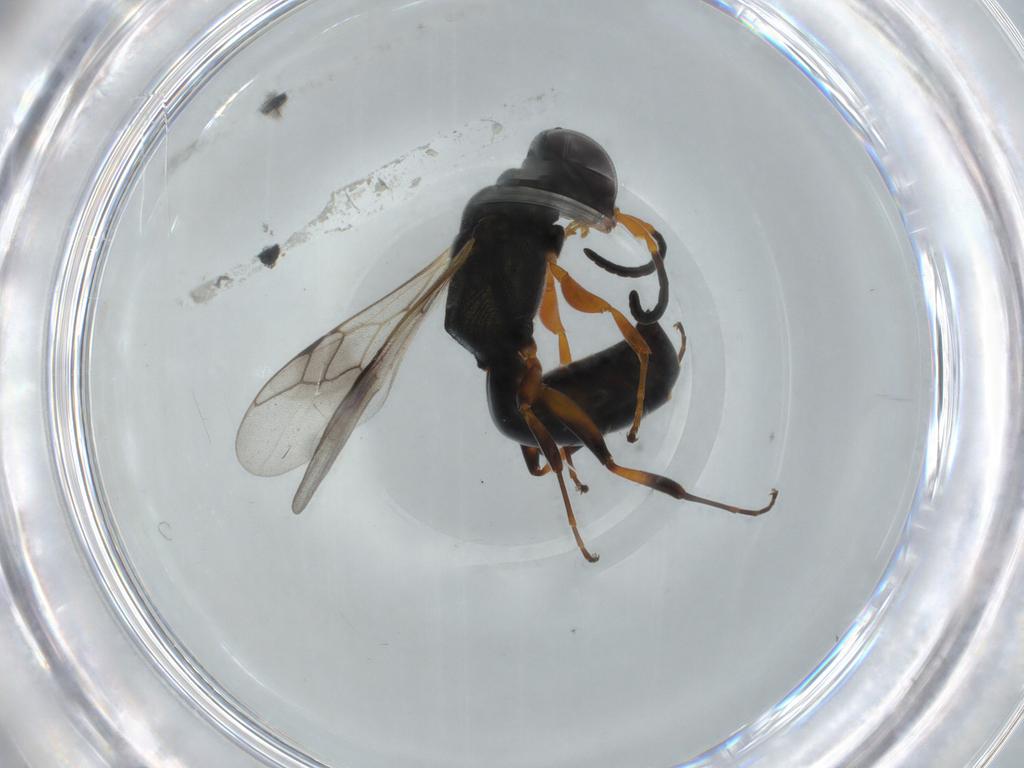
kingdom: Animalia
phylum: Arthropoda
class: Insecta
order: Hymenoptera
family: Crabronidae
